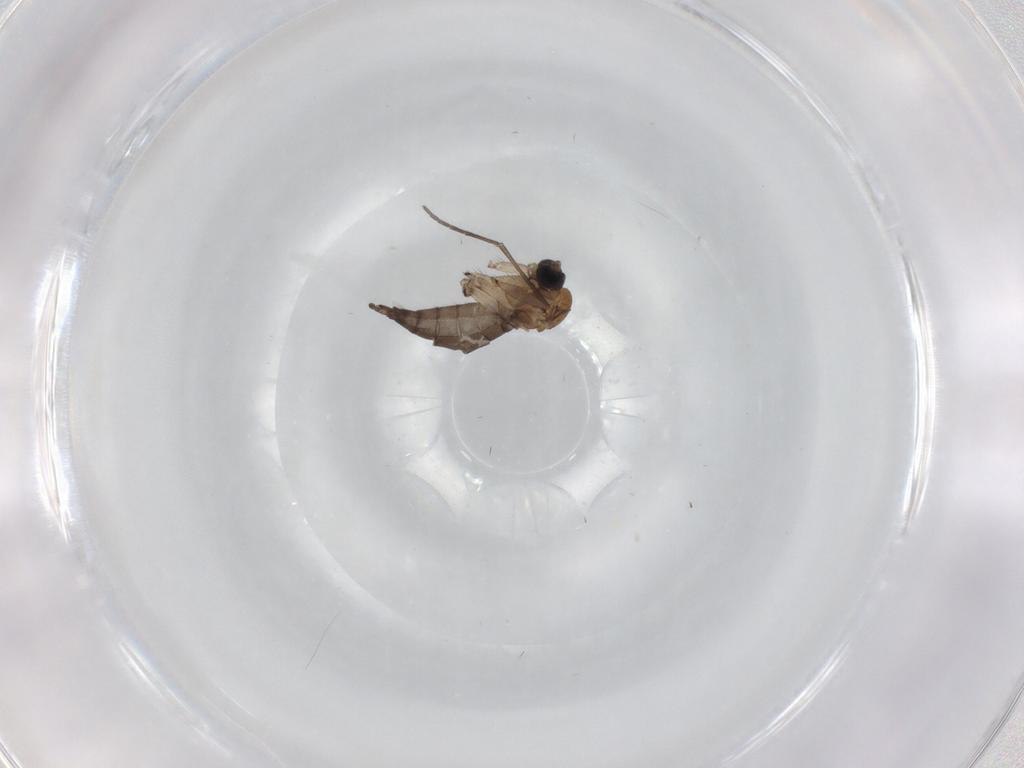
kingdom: Animalia
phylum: Arthropoda
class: Insecta
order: Diptera
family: Sciaridae
